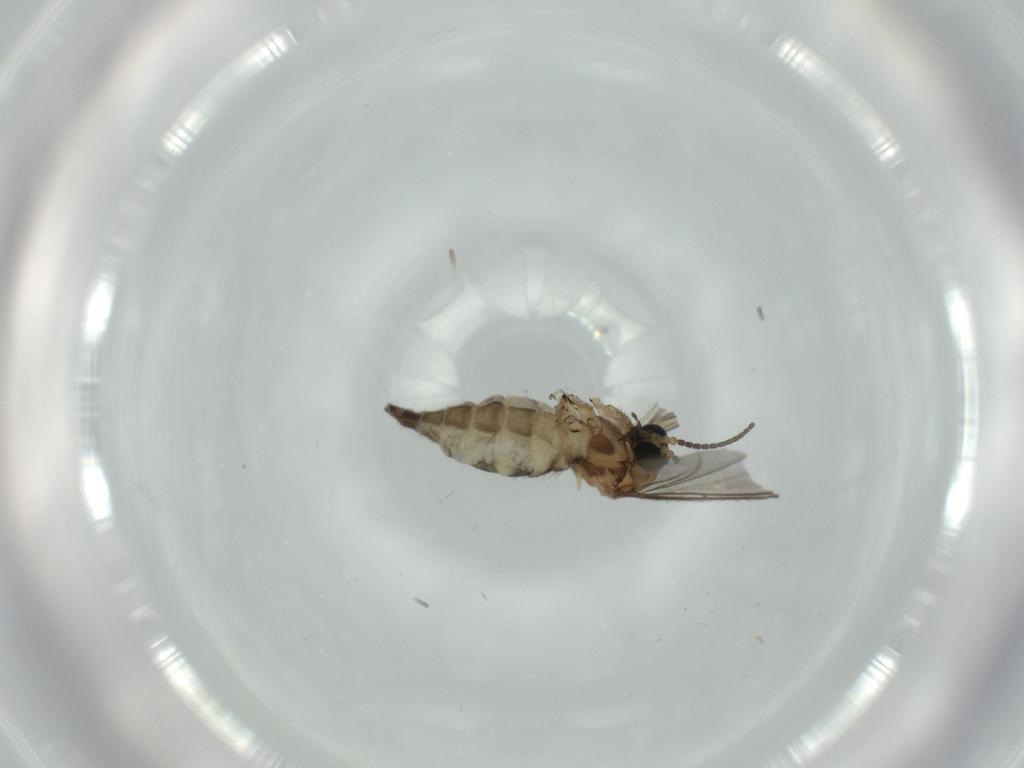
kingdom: Animalia
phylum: Arthropoda
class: Insecta
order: Diptera
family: Sciaridae
